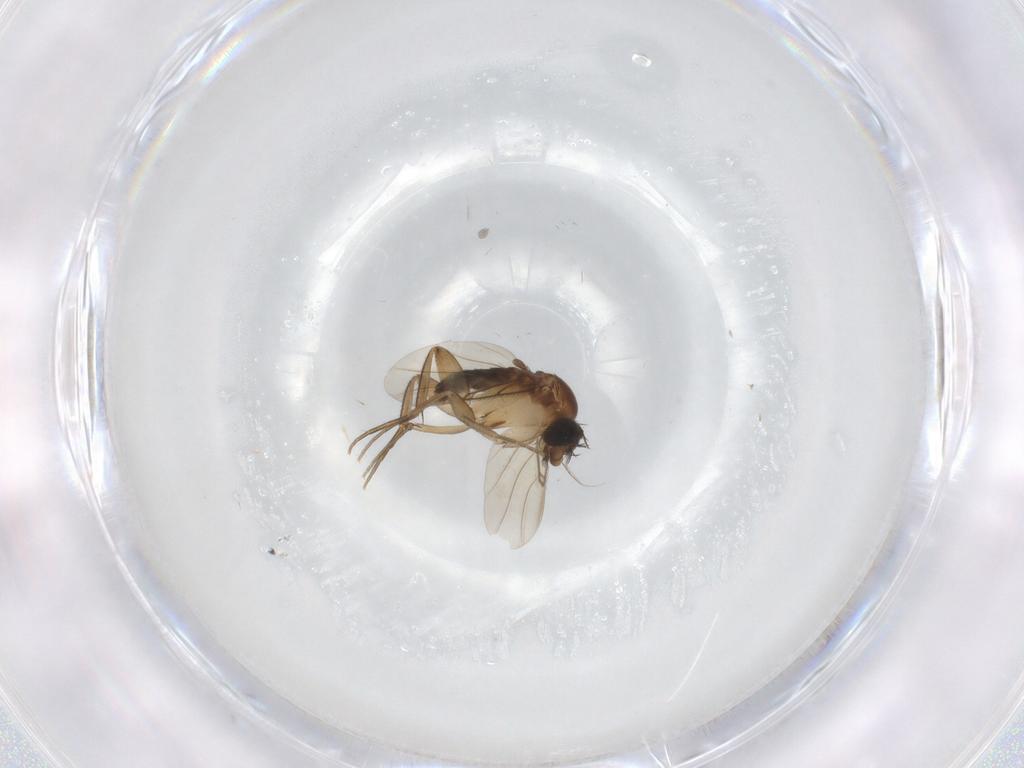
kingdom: Animalia
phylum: Arthropoda
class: Insecta
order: Diptera
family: Phoridae
